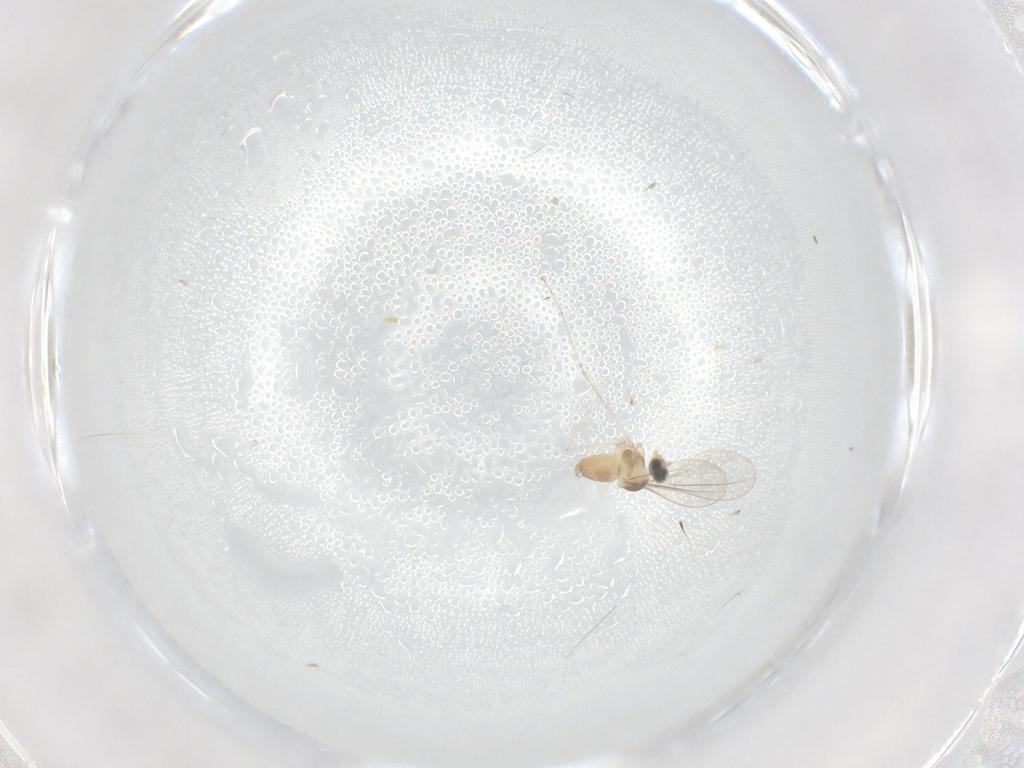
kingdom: Animalia
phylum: Arthropoda
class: Insecta
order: Diptera
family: Cecidomyiidae
